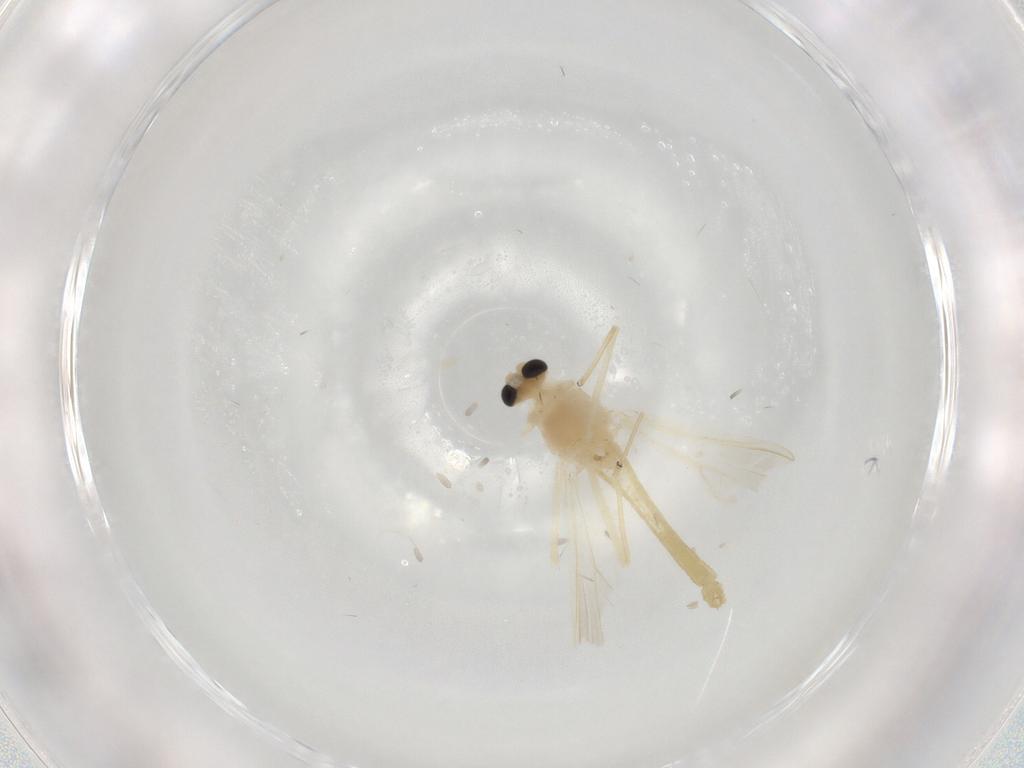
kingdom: Animalia
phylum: Arthropoda
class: Insecta
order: Diptera
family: Chironomidae
